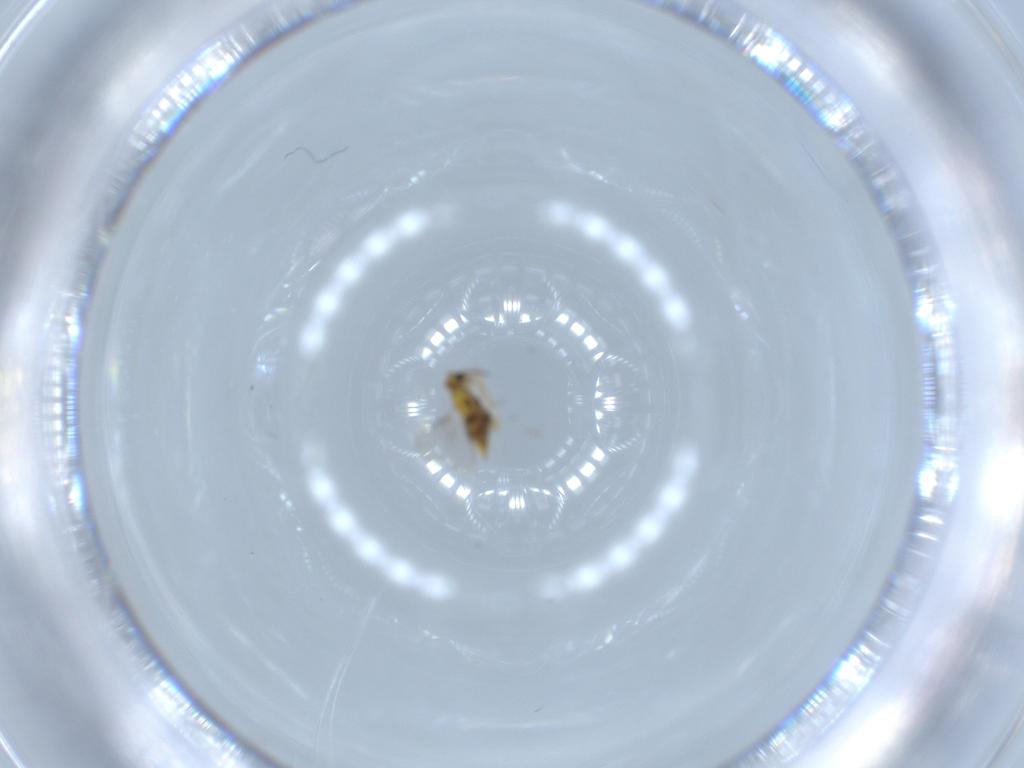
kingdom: Animalia
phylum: Arthropoda
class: Insecta
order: Hymenoptera
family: Aphelinidae
